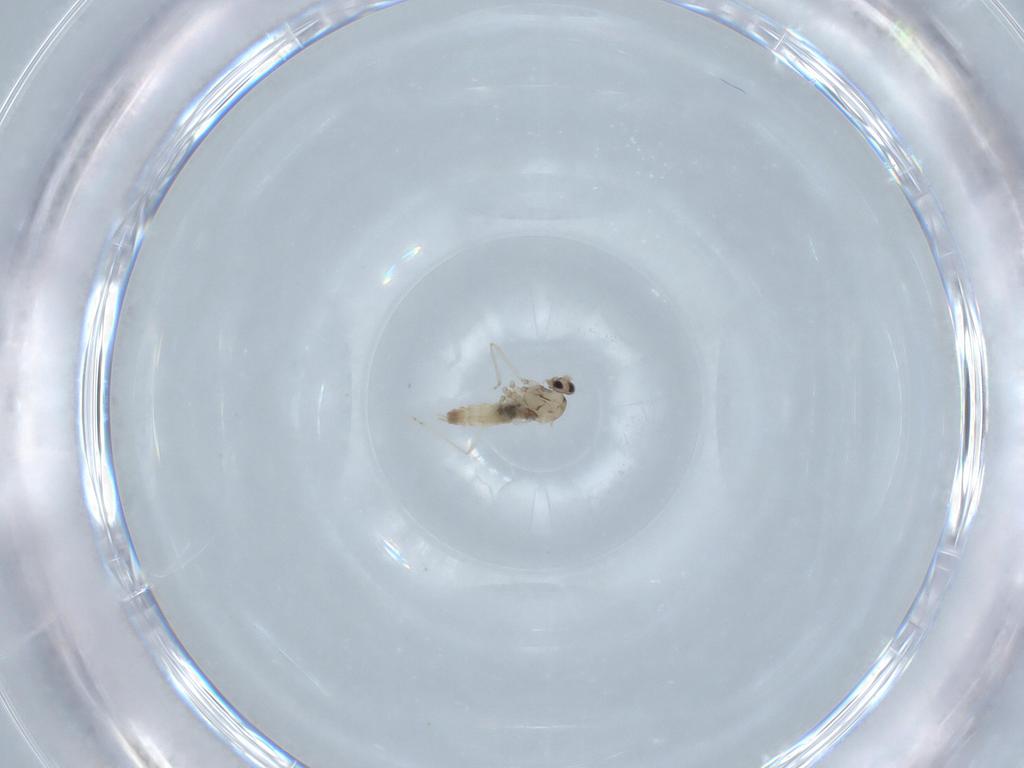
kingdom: Animalia
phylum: Arthropoda
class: Insecta
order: Diptera
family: Cecidomyiidae
